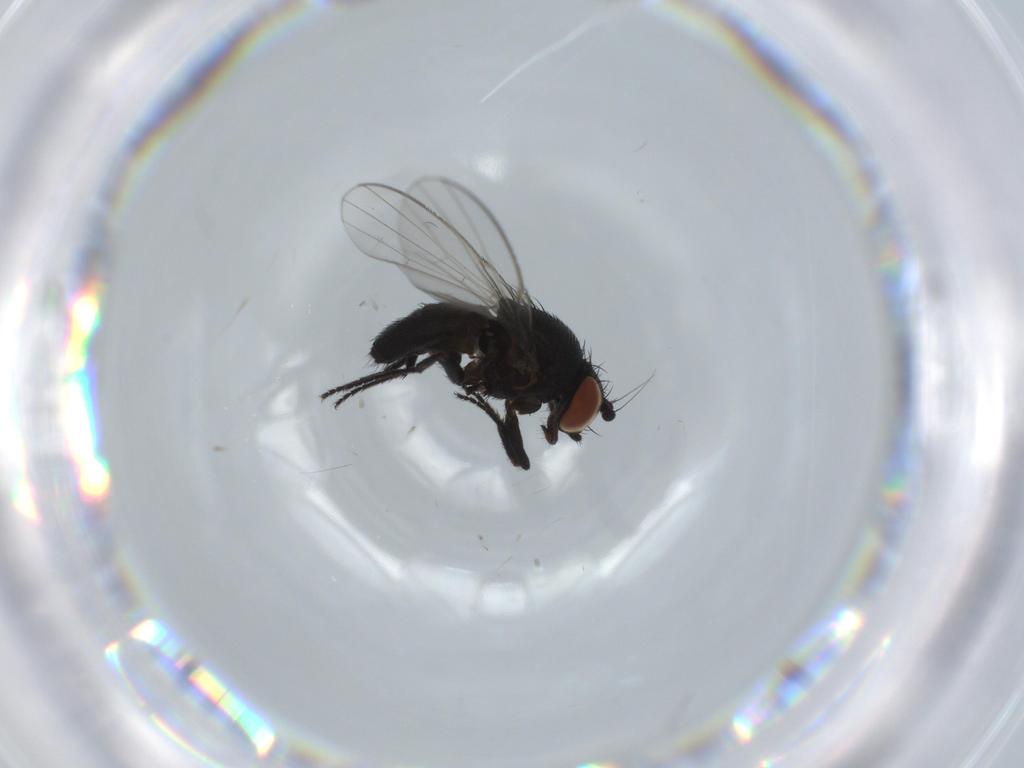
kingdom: Animalia
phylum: Arthropoda
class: Insecta
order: Diptera
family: Milichiidae
